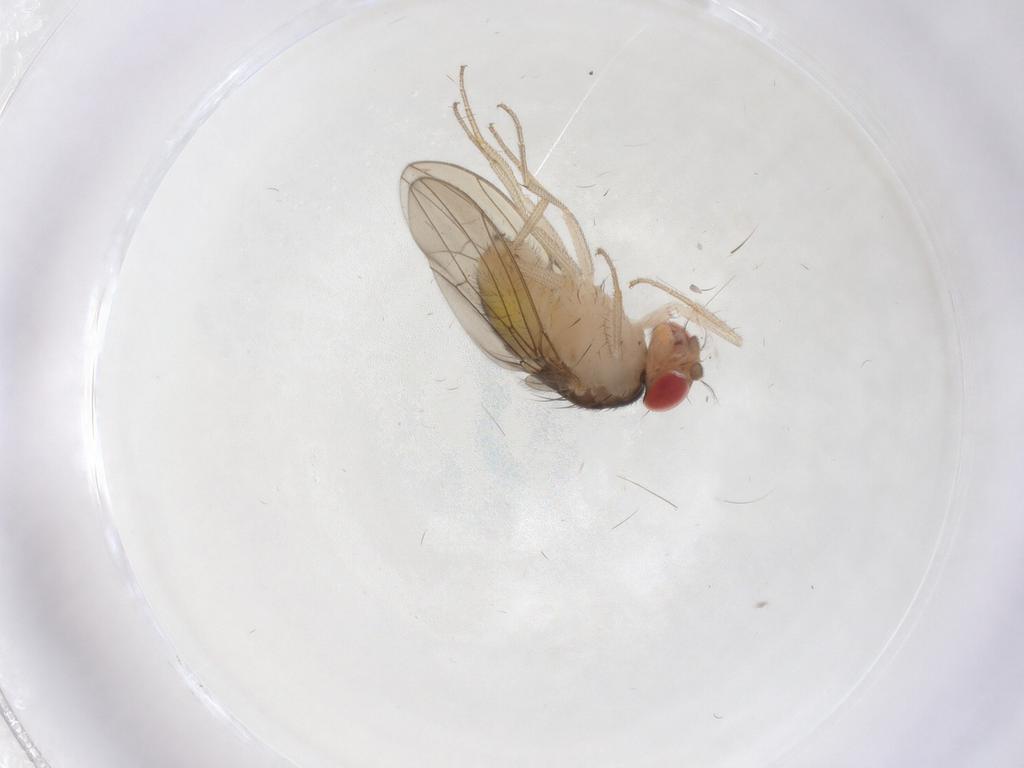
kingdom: Animalia
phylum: Arthropoda
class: Insecta
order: Diptera
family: Drosophilidae
